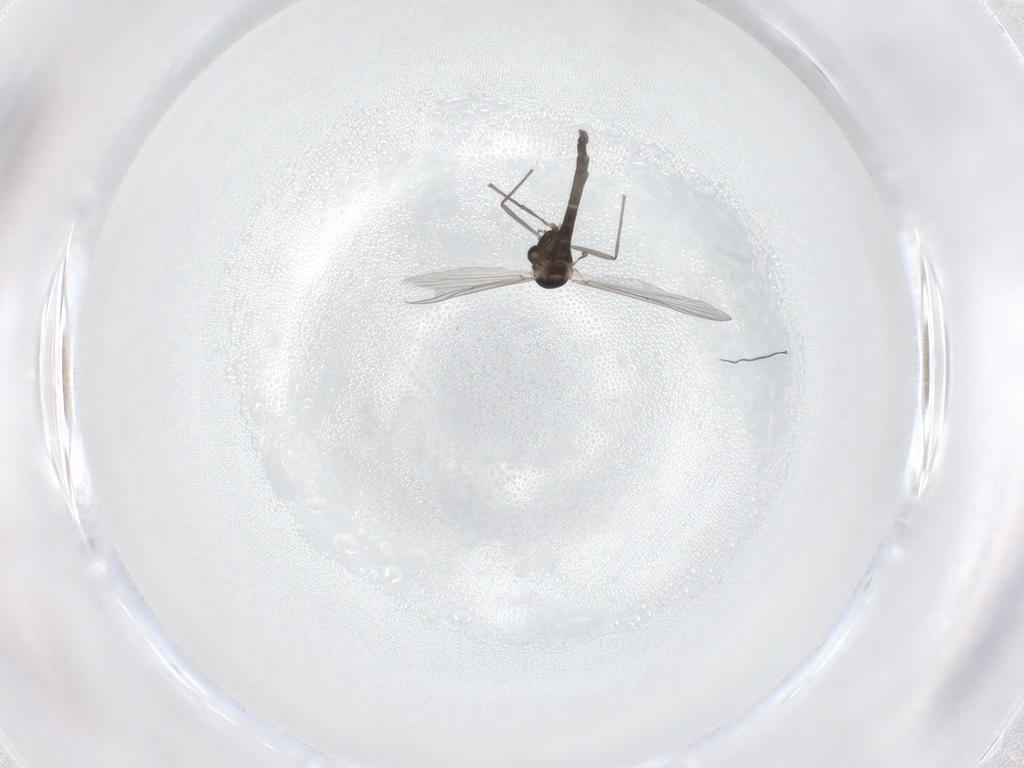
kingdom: Animalia
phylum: Arthropoda
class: Insecta
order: Diptera
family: Chironomidae
